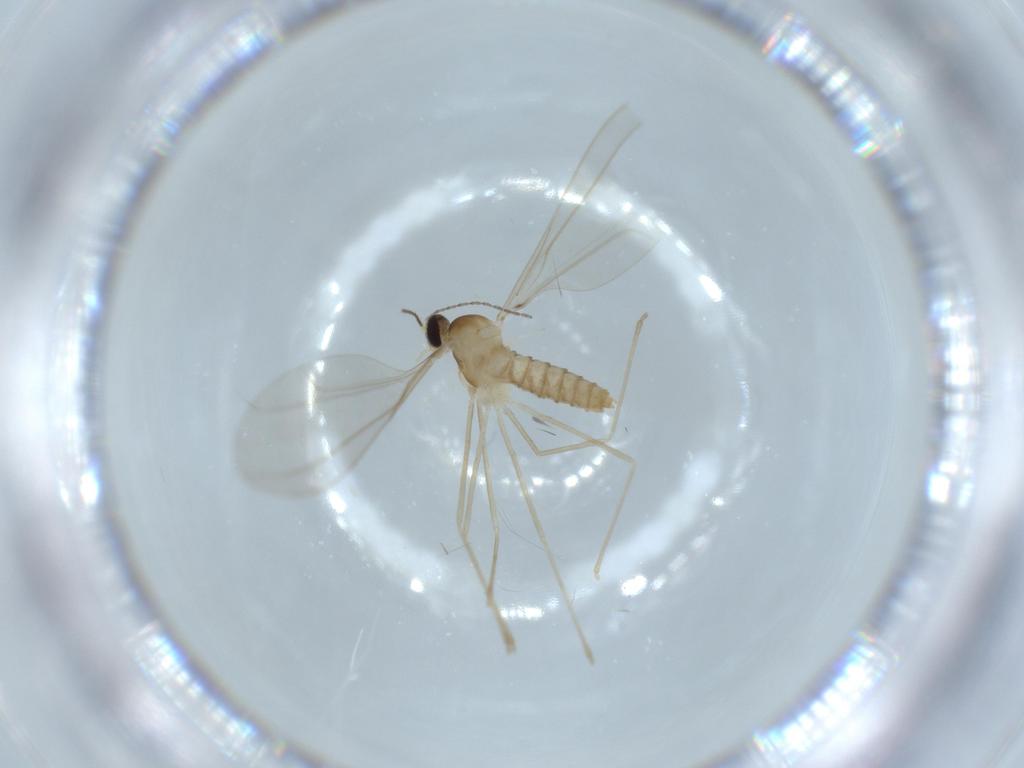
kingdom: Animalia
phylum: Arthropoda
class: Insecta
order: Diptera
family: Cecidomyiidae
